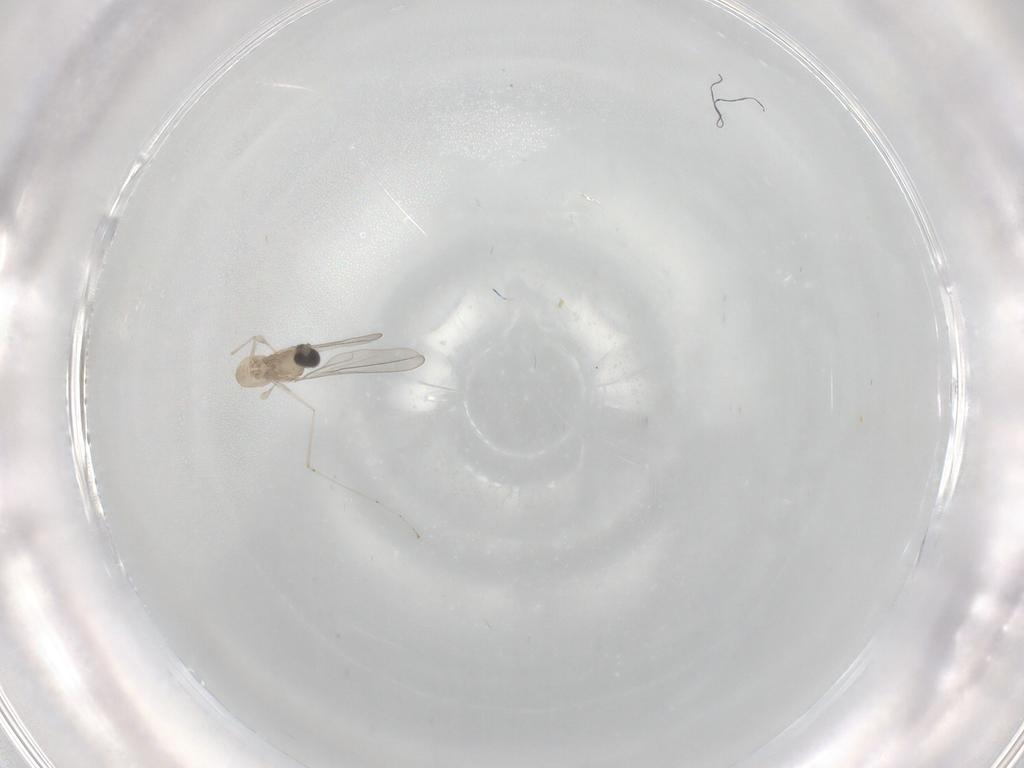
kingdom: Animalia
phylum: Arthropoda
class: Insecta
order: Diptera
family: Cecidomyiidae
